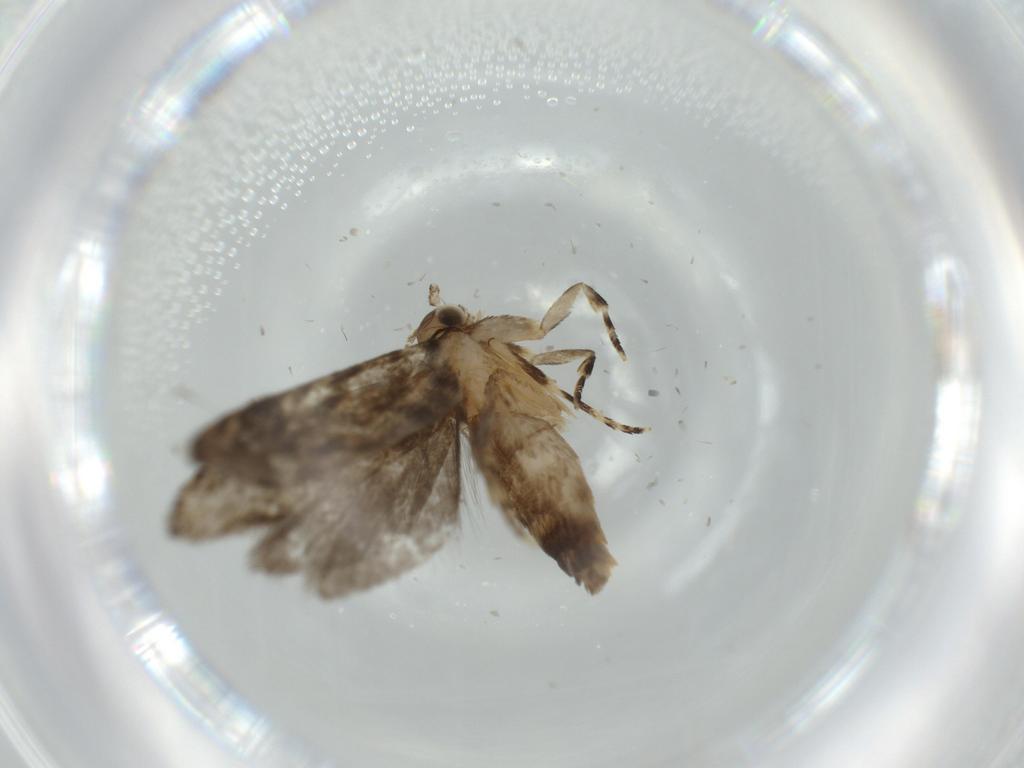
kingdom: Animalia
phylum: Arthropoda
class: Insecta
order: Lepidoptera
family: Tineidae
